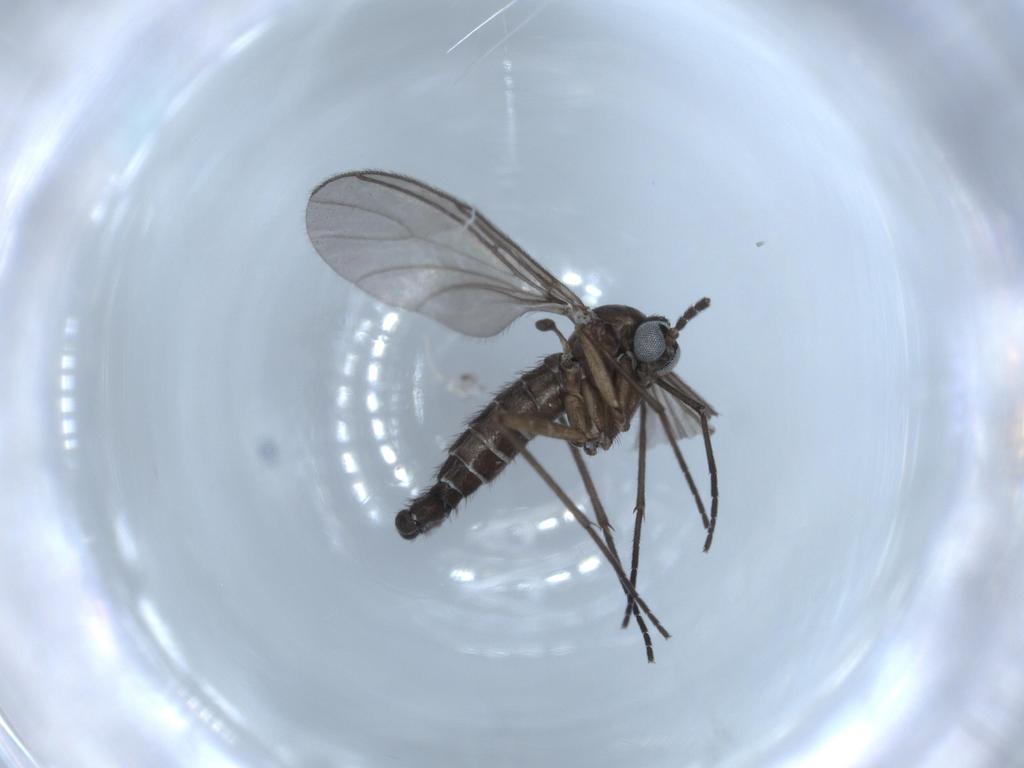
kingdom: Animalia
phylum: Arthropoda
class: Insecta
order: Diptera
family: Sciaridae
